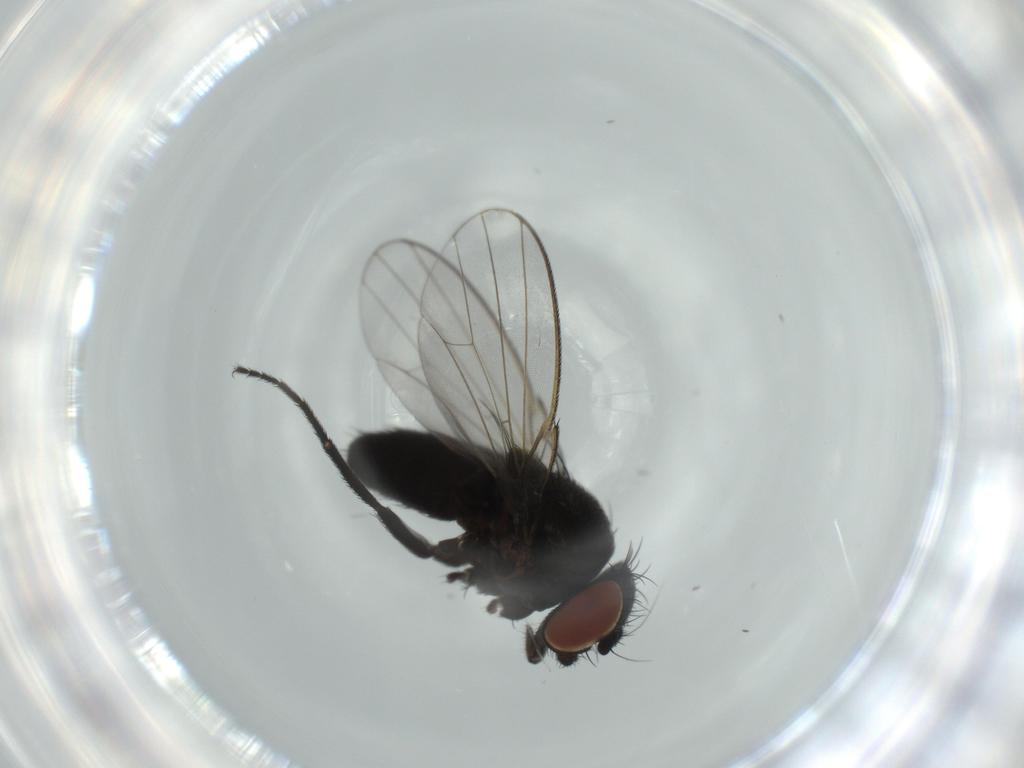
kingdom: Animalia
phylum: Arthropoda
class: Insecta
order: Diptera
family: Milichiidae
